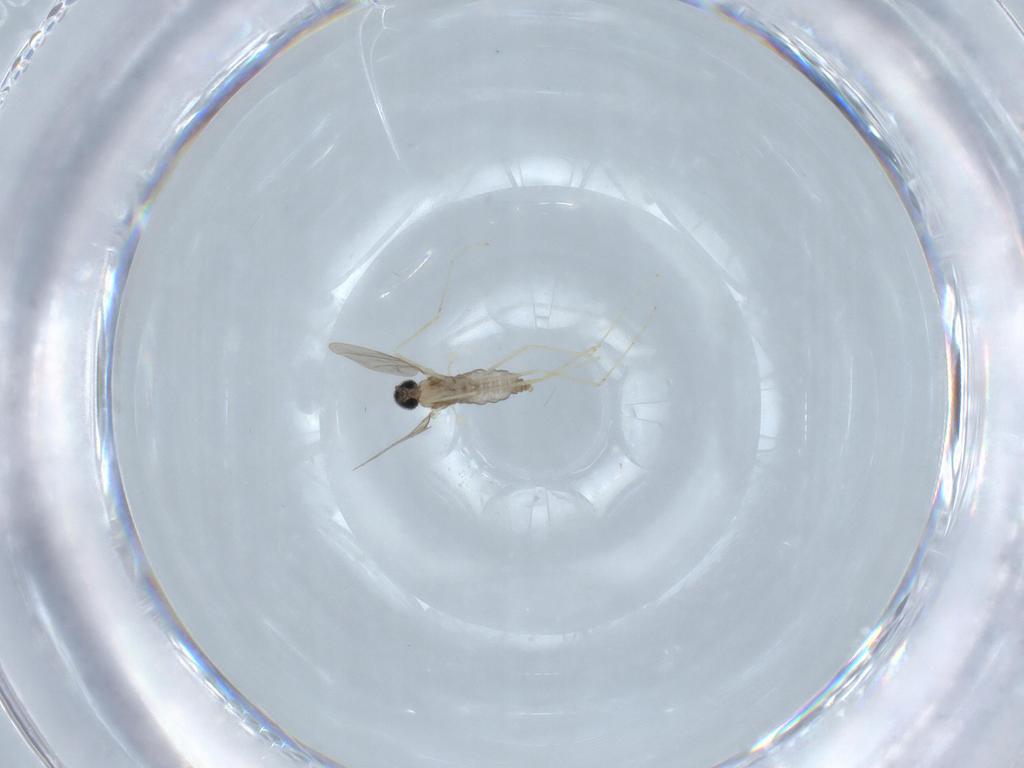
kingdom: Animalia
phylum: Arthropoda
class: Insecta
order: Diptera
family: Cecidomyiidae
